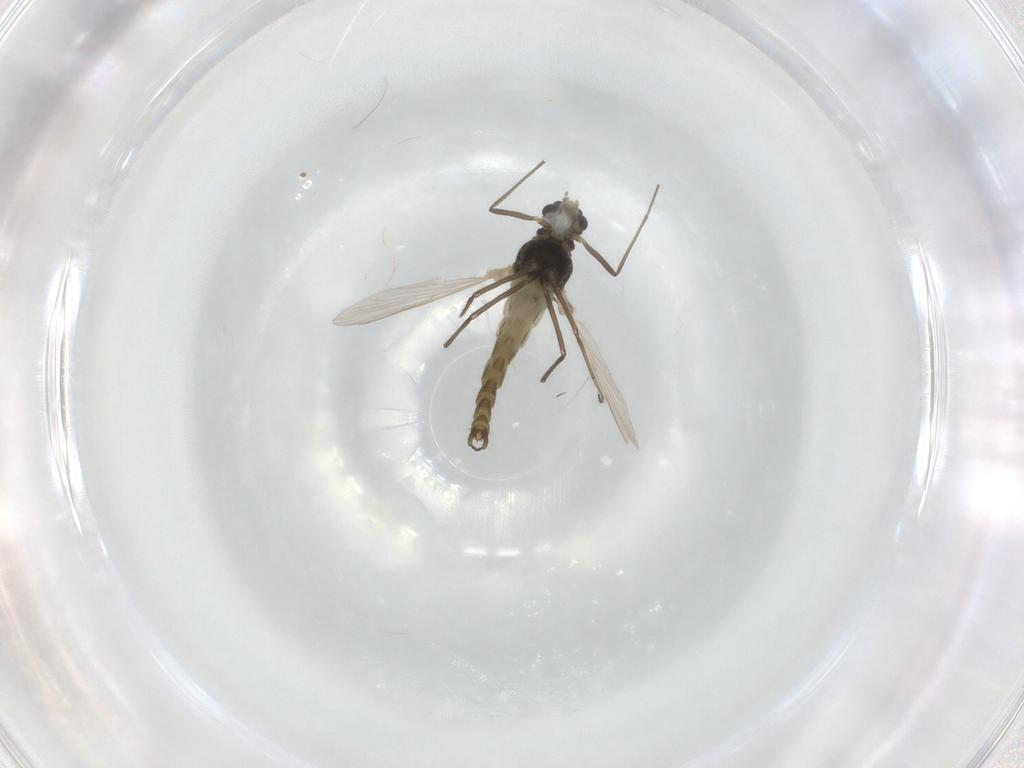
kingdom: Animalia
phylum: Arthropoda
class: Insecta
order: Diptera
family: Chironomidae
